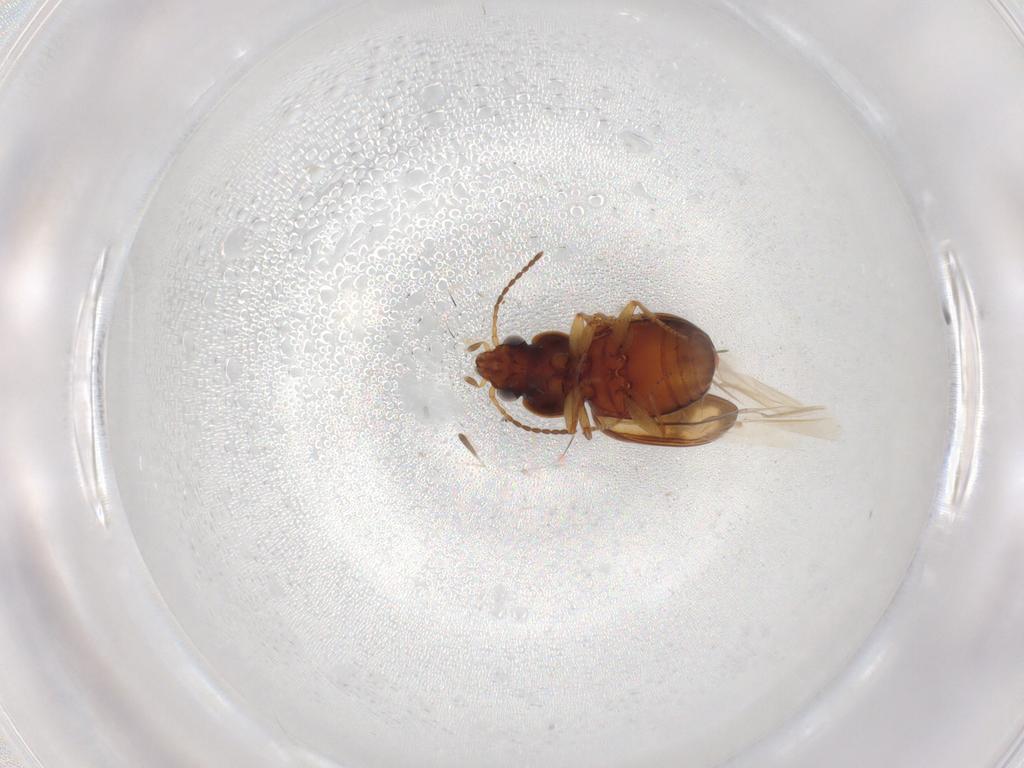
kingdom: Animalia
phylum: Arthropoda
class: Insecta
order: Coleoptera
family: Carabidae
